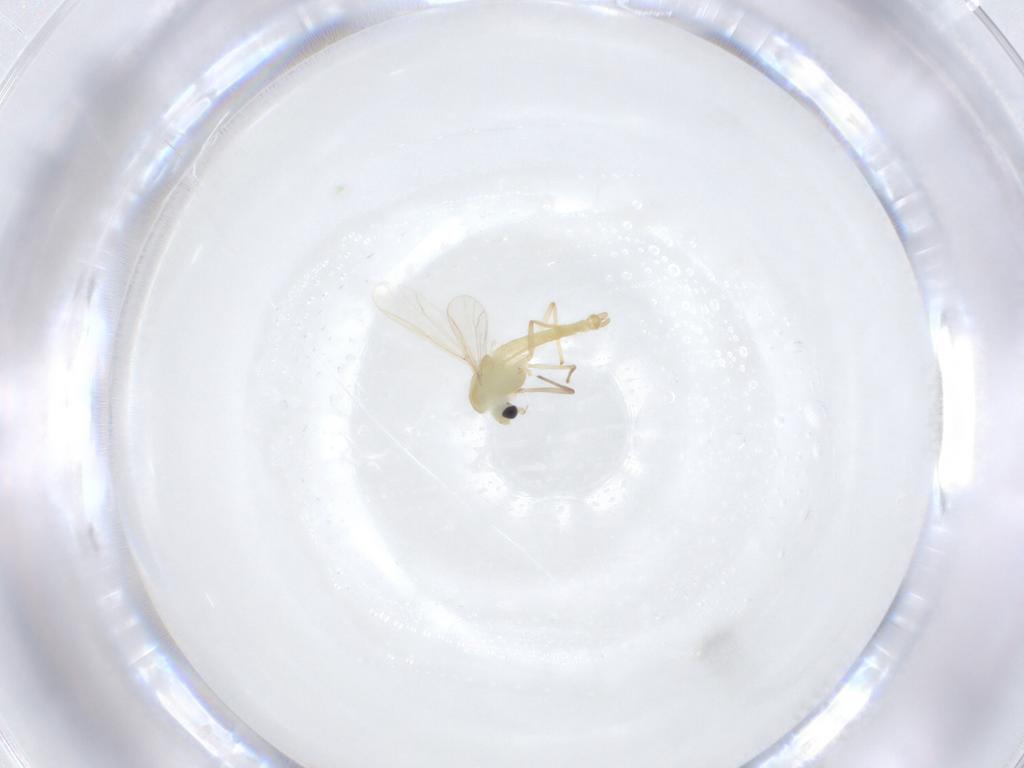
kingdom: Animalia
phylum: Arthropoda
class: Insecta
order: Diptera
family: Chironomidae
